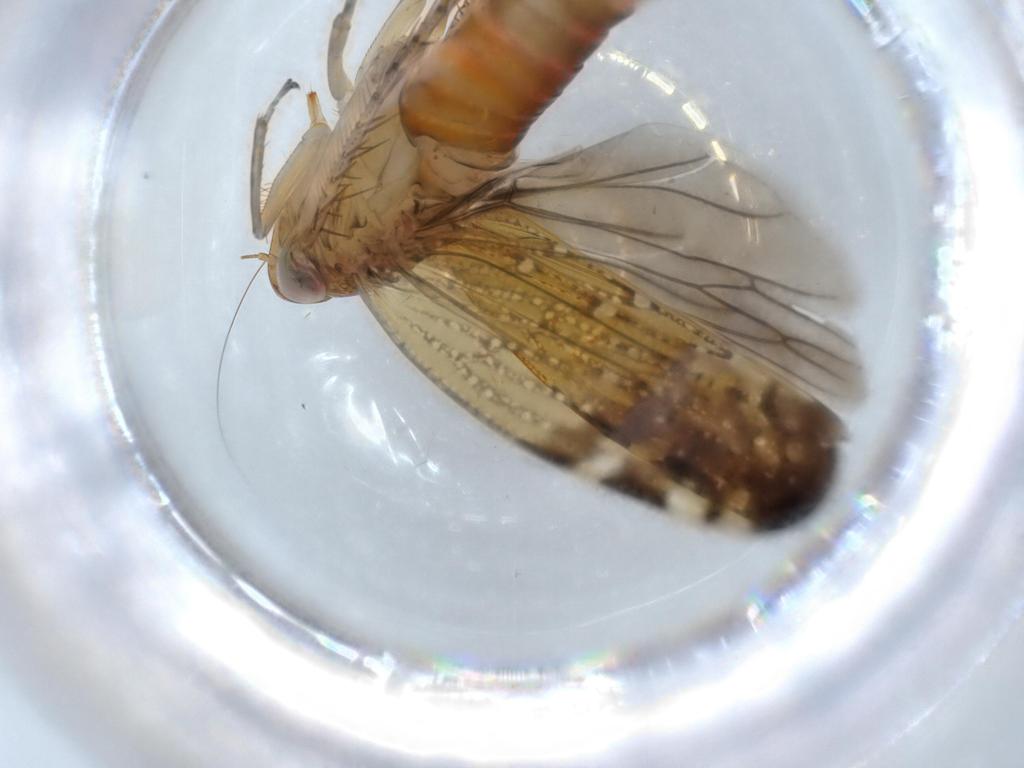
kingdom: Animalia
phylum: Arthropoda
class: Insecta
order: Hemiptera
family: Cicadellidae
